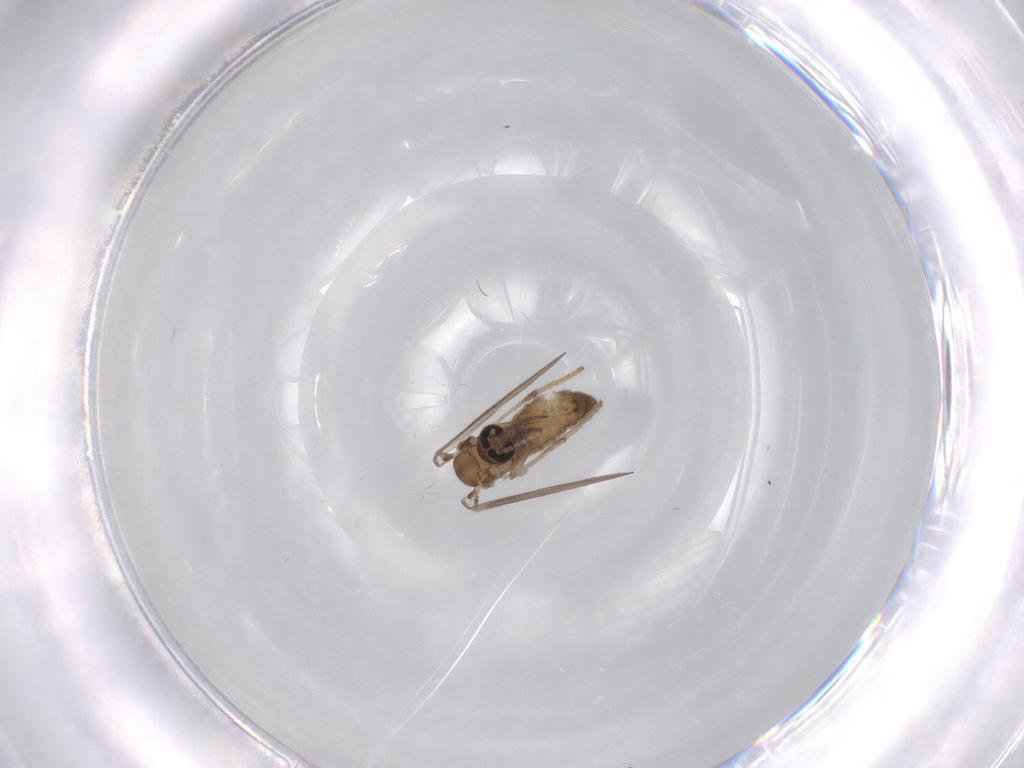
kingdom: Animalia
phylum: Arthropoda
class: Insecta
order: Diptera
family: Psychodidae
